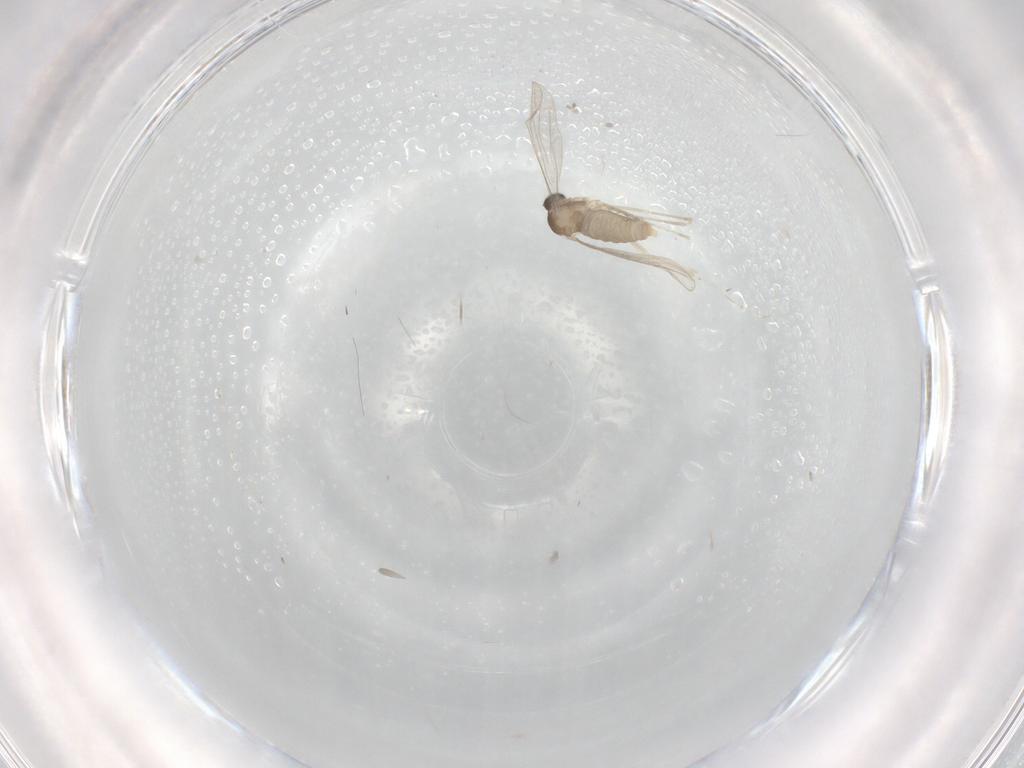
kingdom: Animalia
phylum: Arthropoda
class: Insecta
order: Diptera
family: Cecidomyiidae
